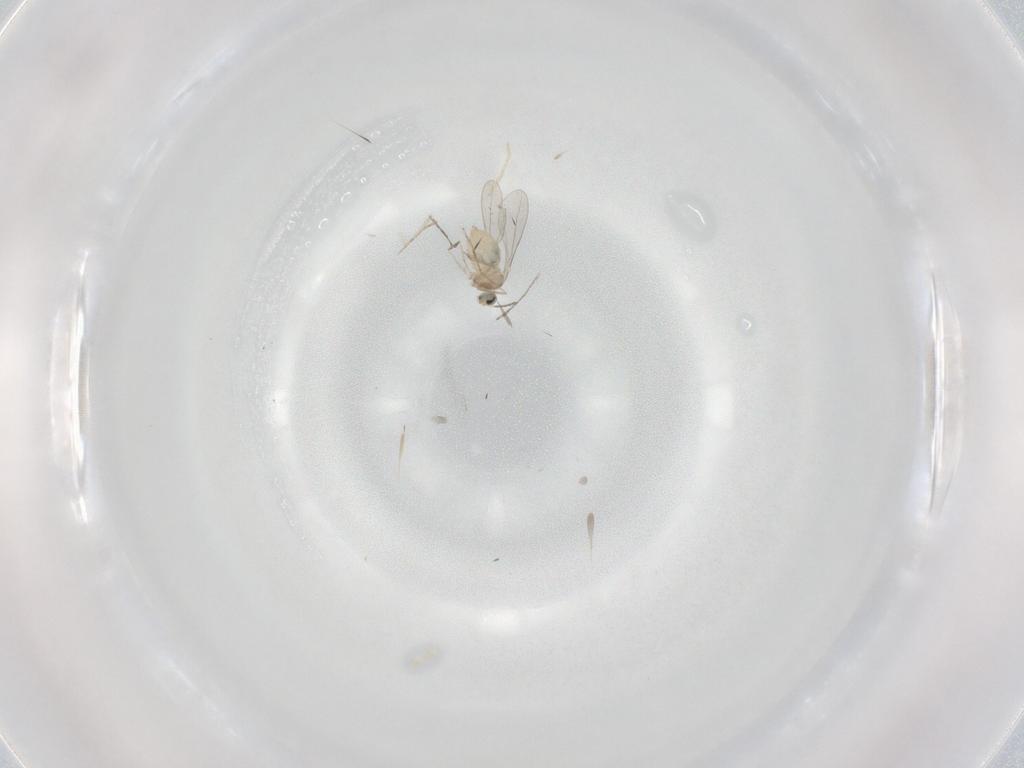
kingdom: Animalia
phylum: Arthropoda
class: Insecta
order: Diptera
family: Cecidomyiidae
